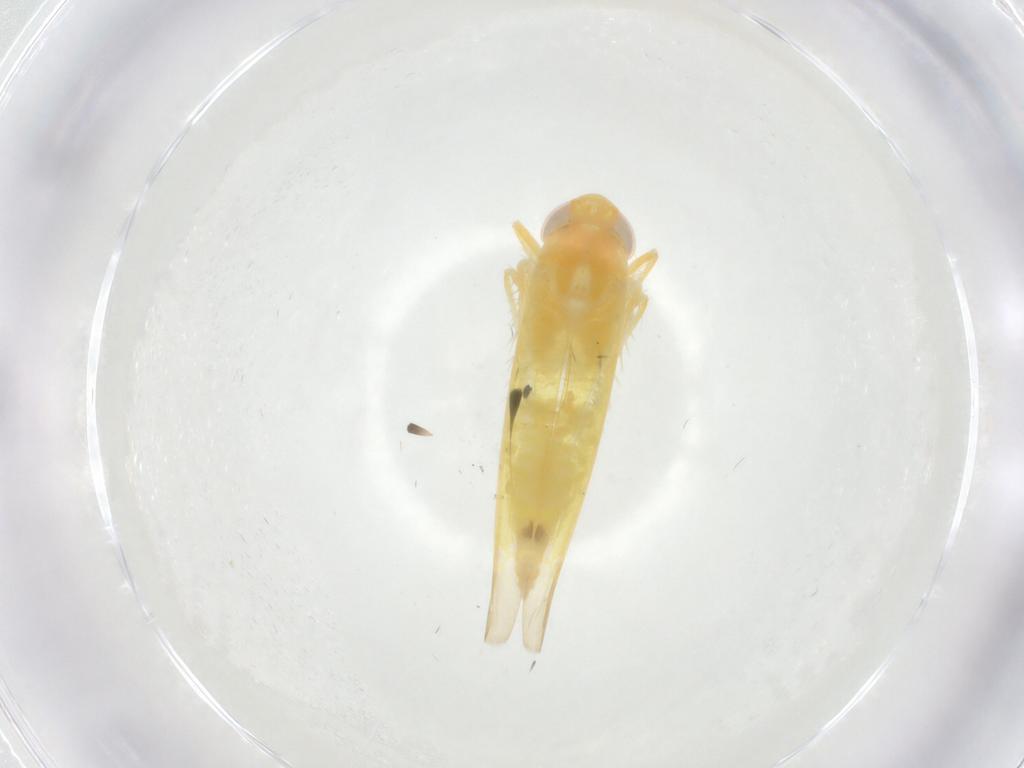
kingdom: Animalia
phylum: Arthropoda
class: Insecta
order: Hemiptera
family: Cicadellidae
